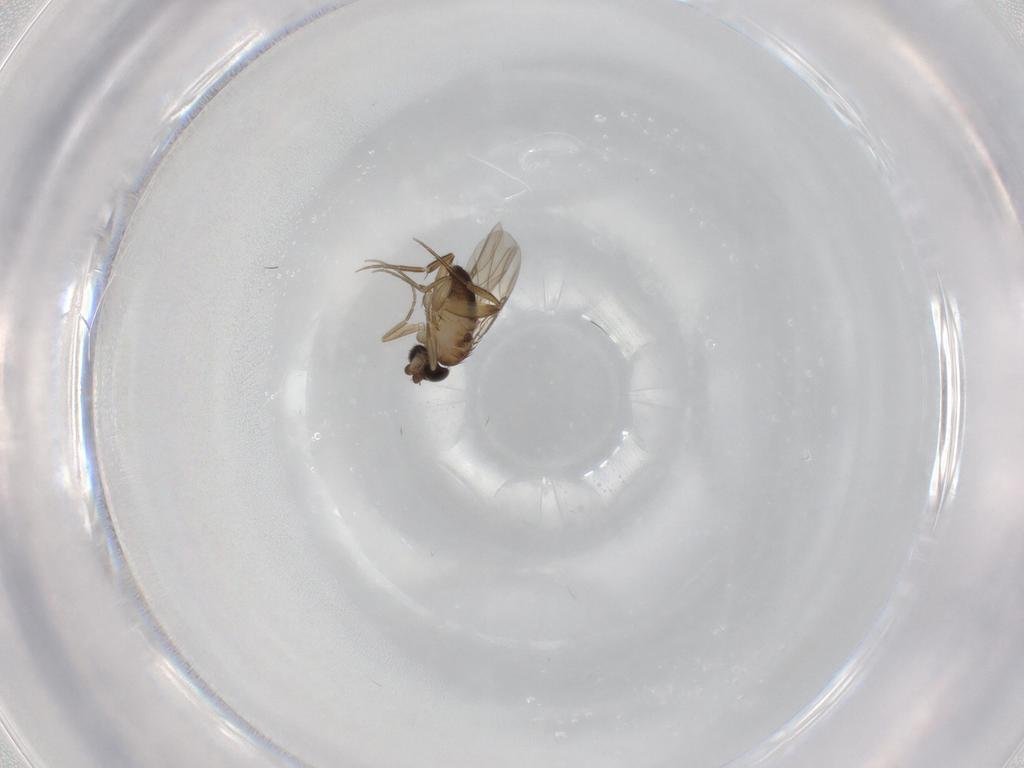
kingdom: Animalia
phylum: Arthropoda
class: Insecta
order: Diptera
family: Phoridae
